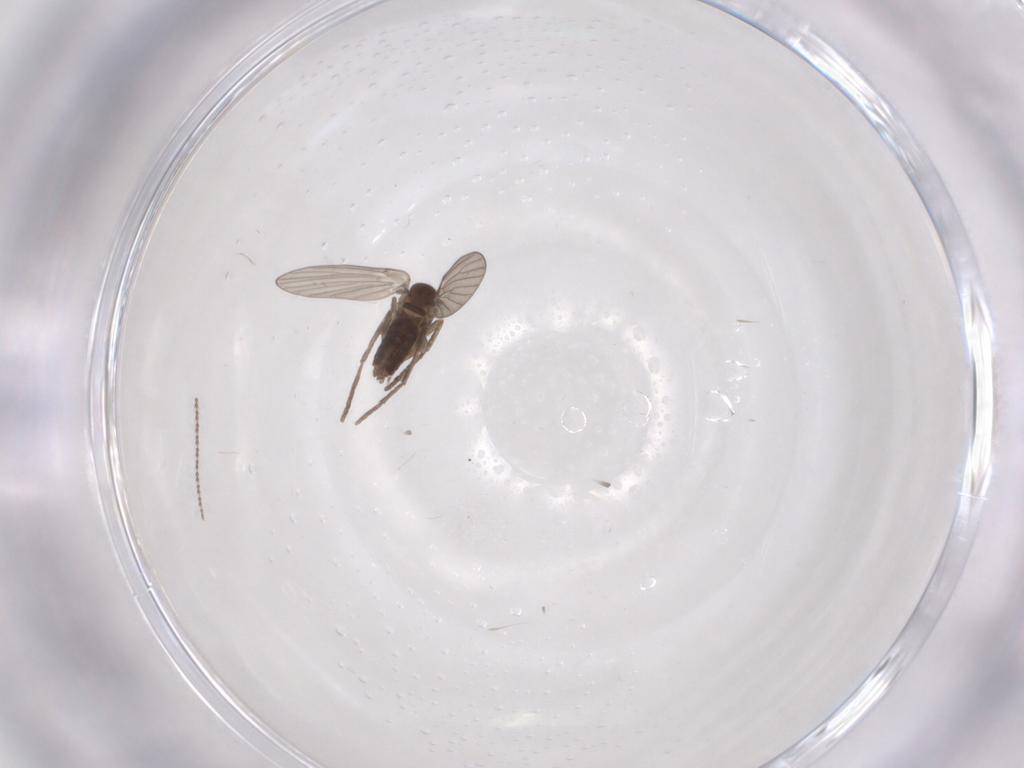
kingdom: Animalia
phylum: Arthropoda
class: Insecta
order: Diptera
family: Cecidomyiidae
